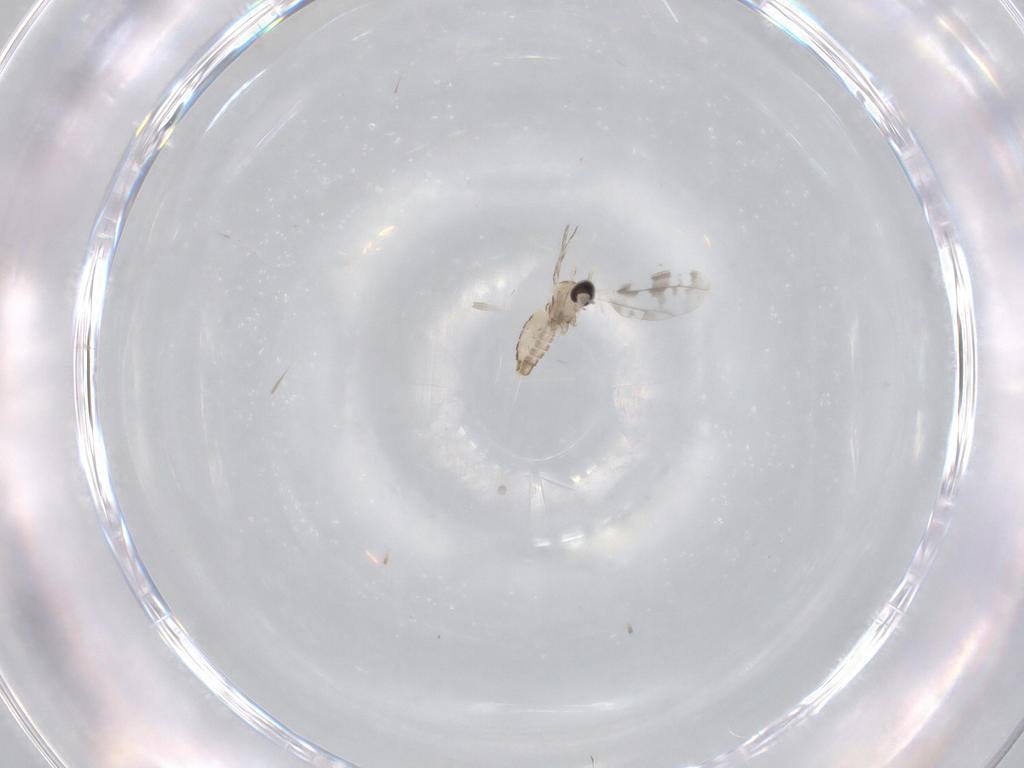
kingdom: Animalia
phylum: Arthropoda
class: Insecta
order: Diptera
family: Cecidomyiidae
